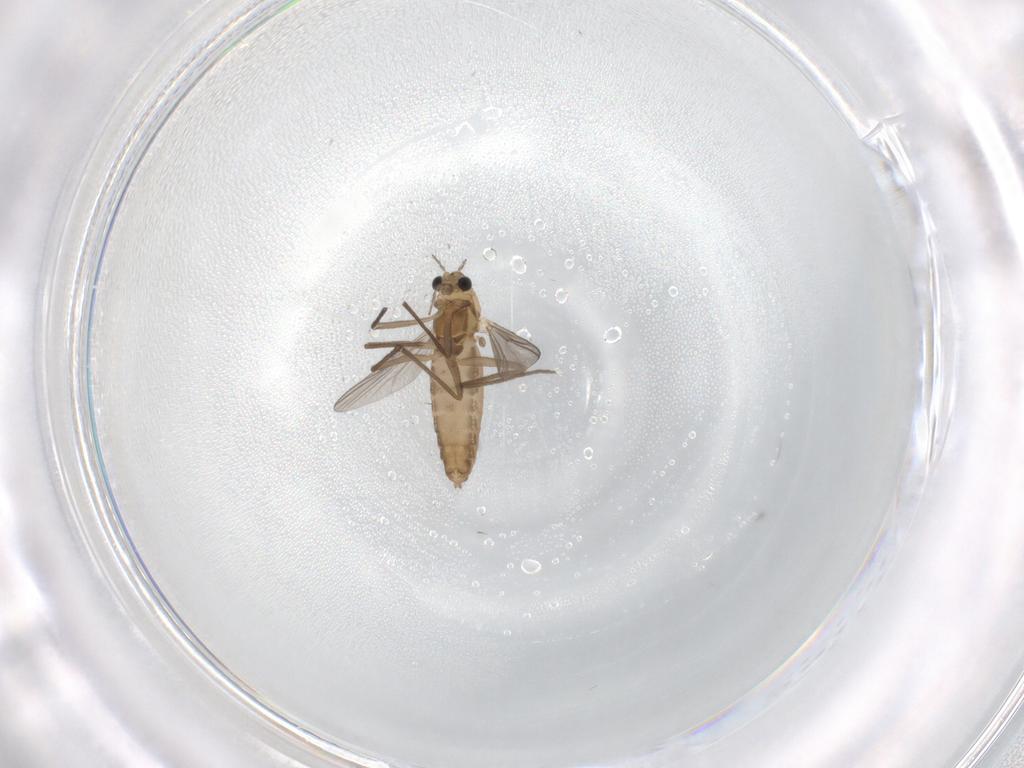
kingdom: Animalia
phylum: Arthropoda
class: Insecta
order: Diptera
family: Chironomidae
